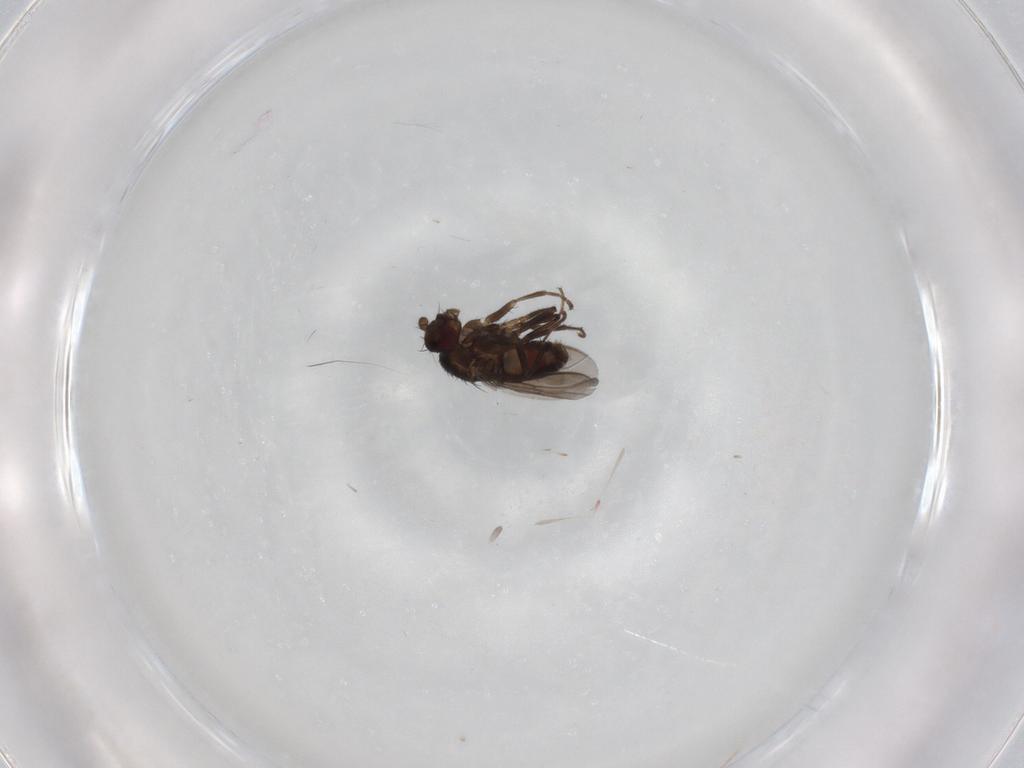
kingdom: Animalia
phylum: Arthropoda
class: Insecta
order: Diptera
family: Sphaeroceridae
